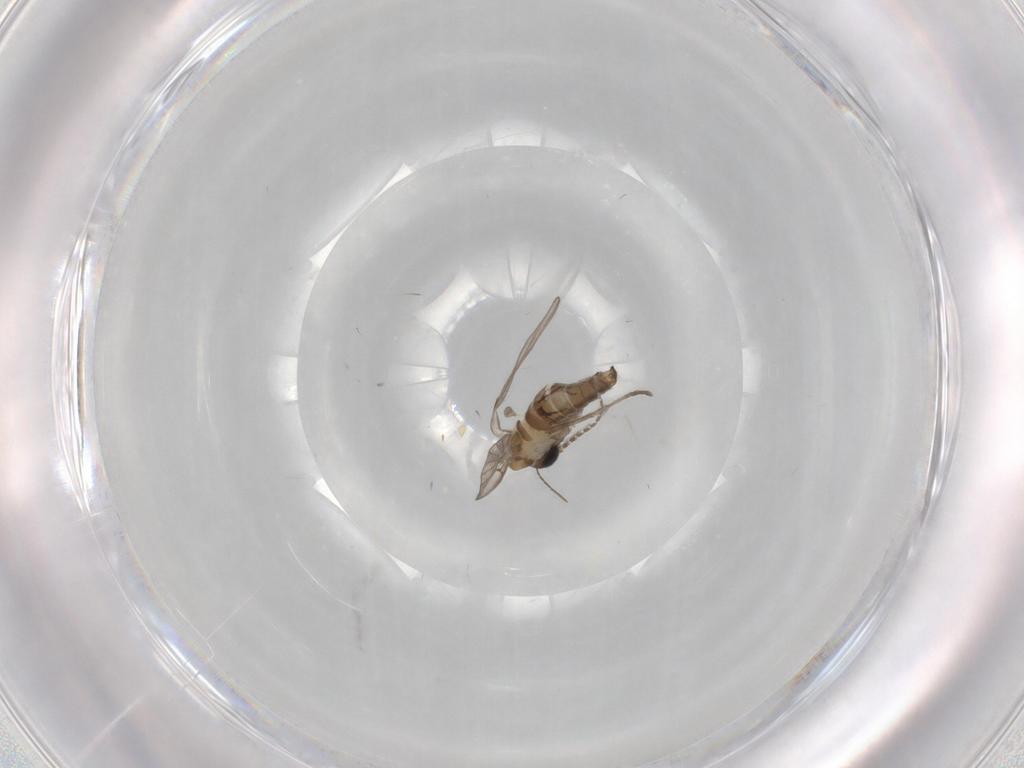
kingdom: Animalia
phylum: Arthropoda
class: Insecta
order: Diptera
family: Psychodidae
